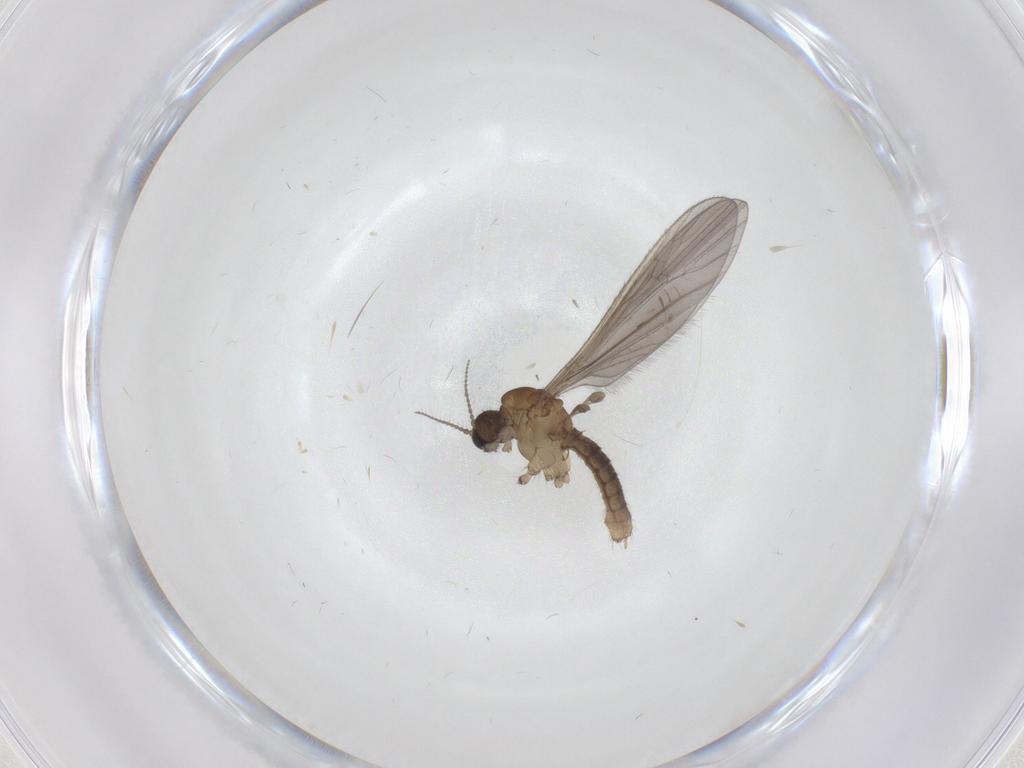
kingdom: Animalia
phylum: Arthropoda
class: Insecta
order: Diptera
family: Limoniidae
